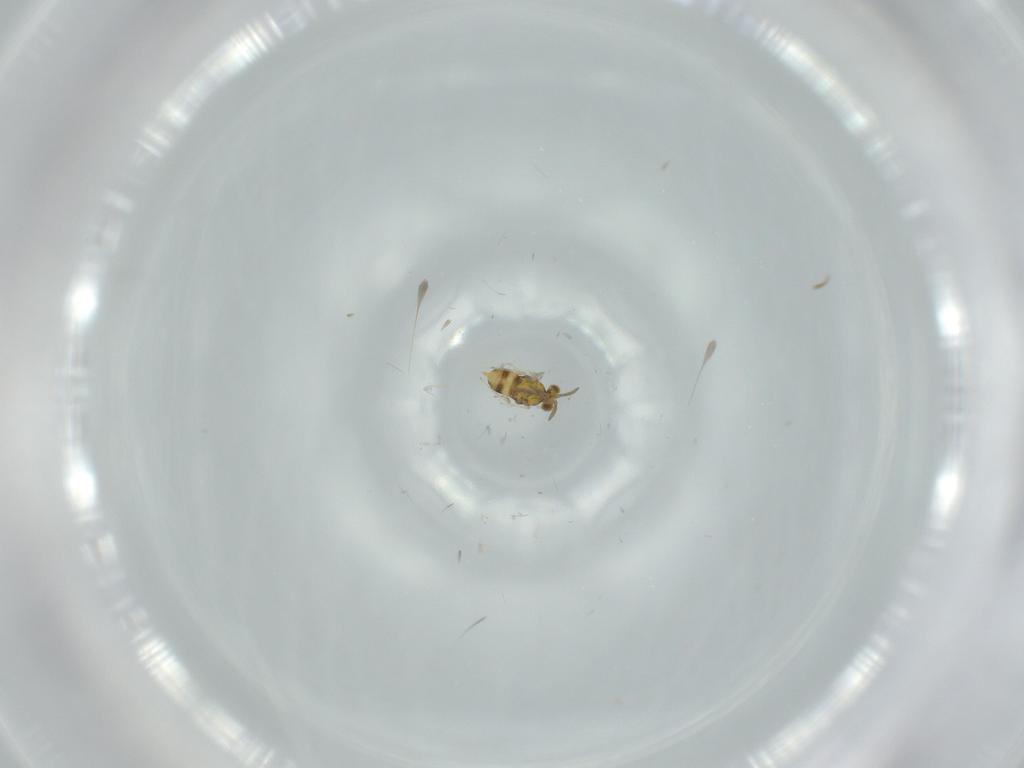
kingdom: Animalia
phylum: Arthropoda
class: Insecta
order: Hymenoptera
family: Aphelinidae
